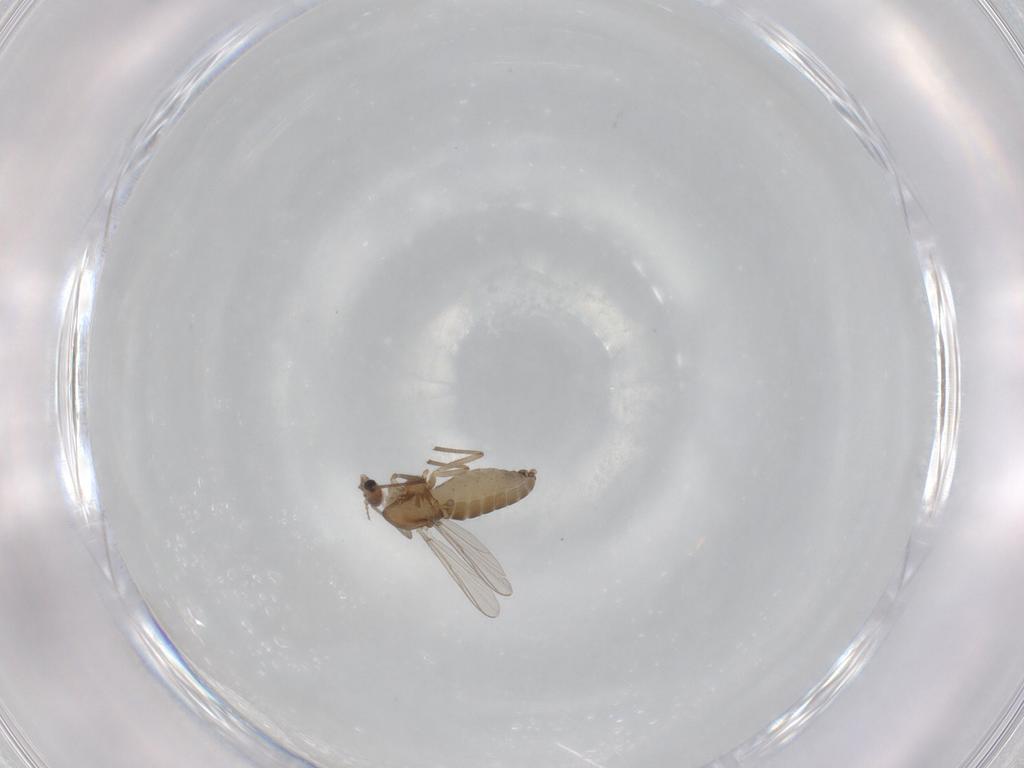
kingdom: Animalia
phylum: Arthropoda
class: Insecta
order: Diptera
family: Chironomidae
